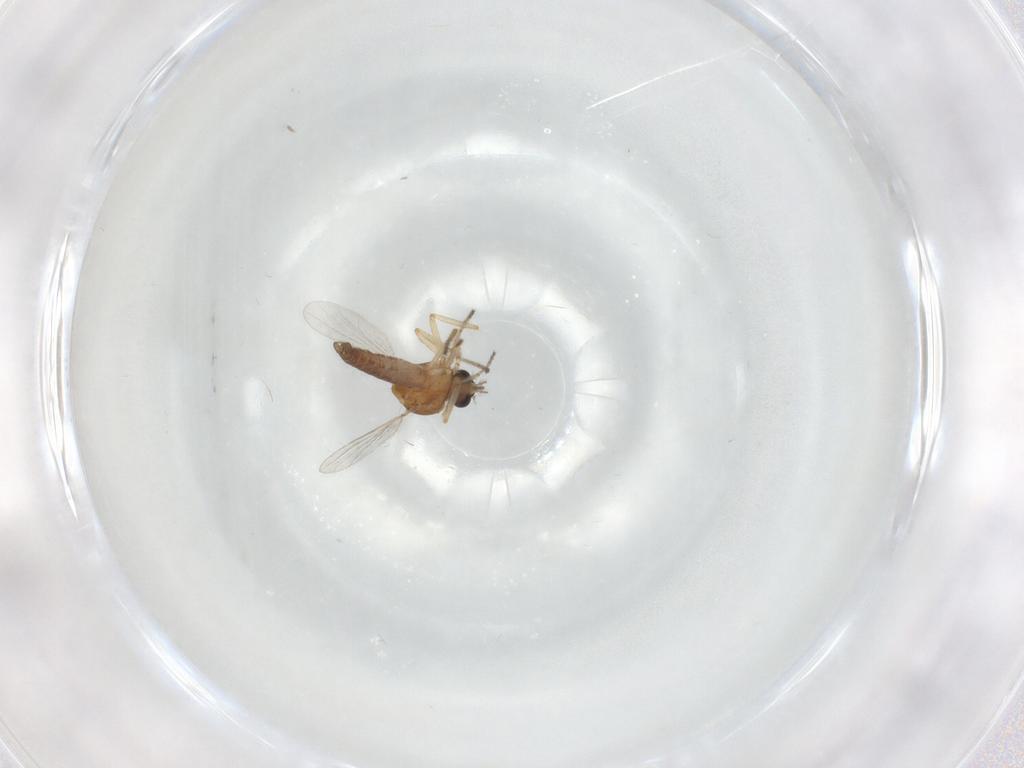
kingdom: Animalia
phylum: Arthropoda
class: Insecta
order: Diptera
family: Ceratopogonidae
